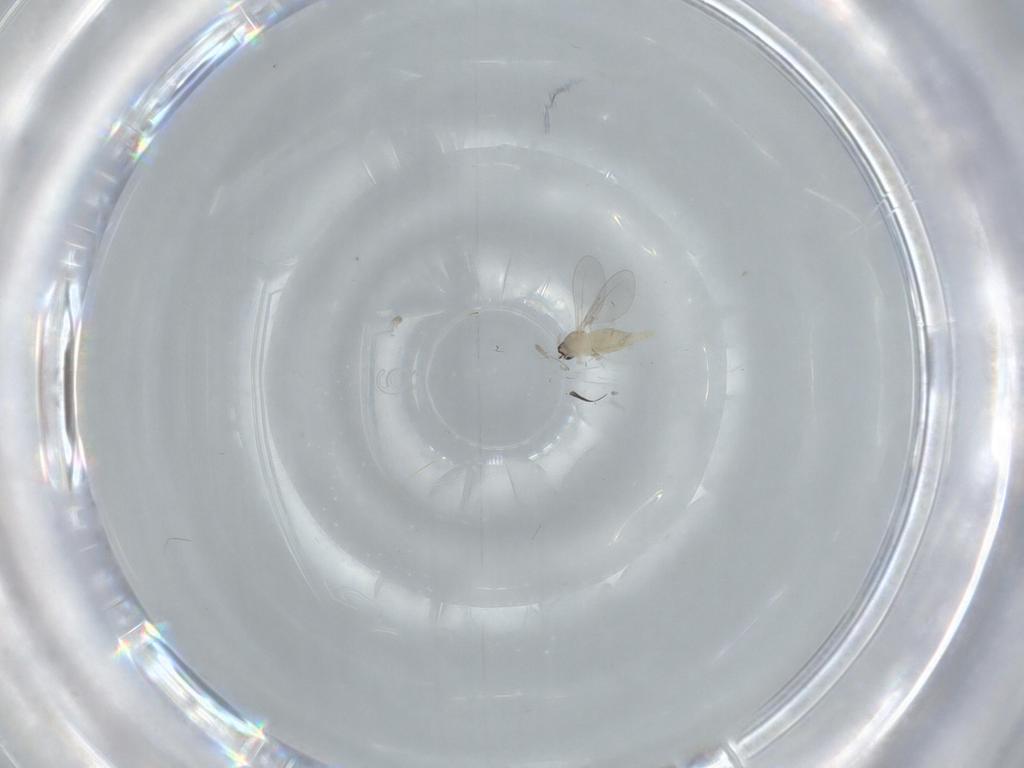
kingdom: Animalia
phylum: Arthropoda
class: Insecta
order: Diptera
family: Cecidomyiidae
